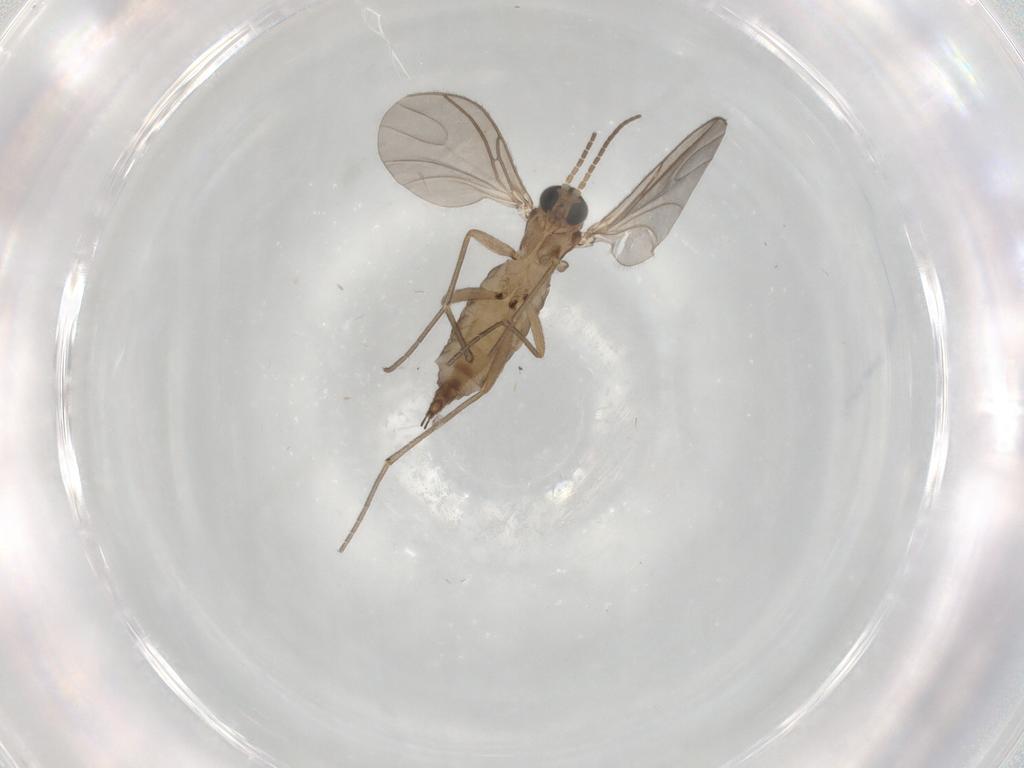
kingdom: Animalia
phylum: Arthropoda
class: Insecta
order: Diptera
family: Sciaridae
